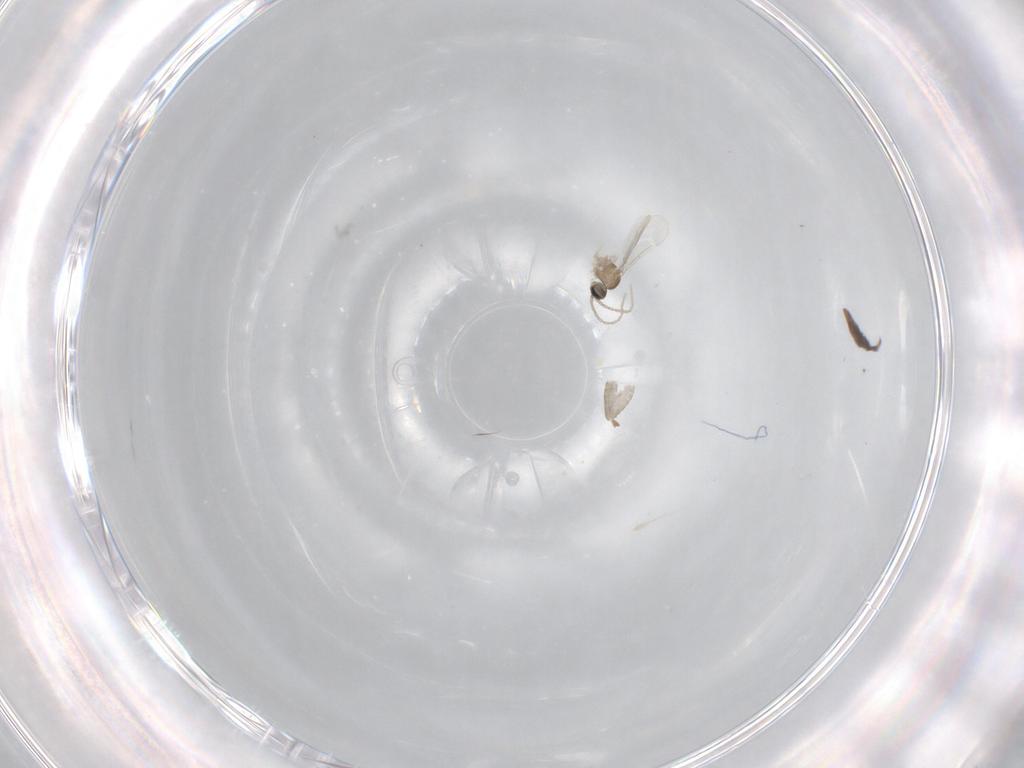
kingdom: Animalia
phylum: Arthropoda
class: Insecta
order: Diptera
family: Cecidomyiidae
